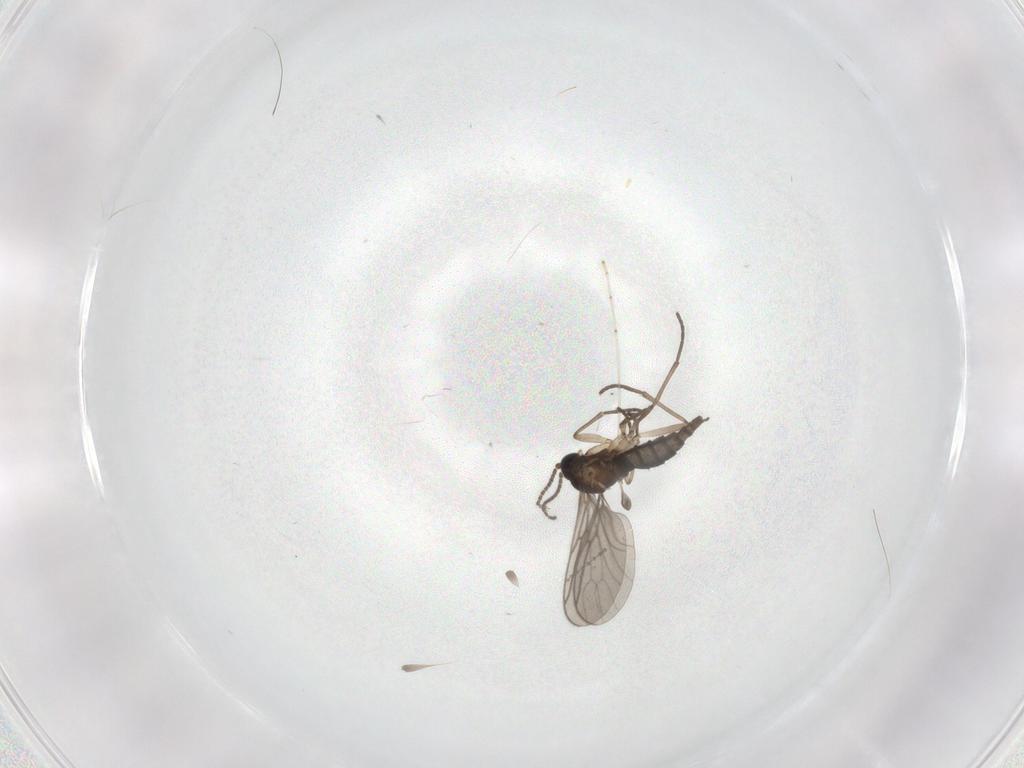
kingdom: Animalia
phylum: Arthropoda
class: Insecta
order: Diptera
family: Sciaridae
